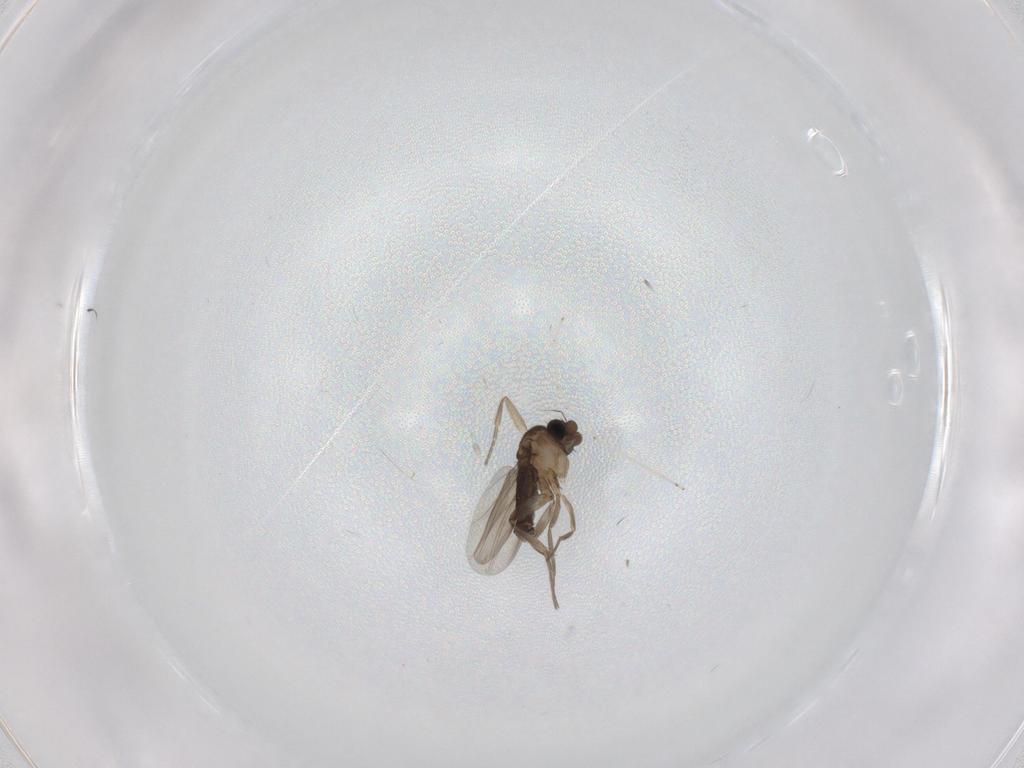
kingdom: Animalia
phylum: Arthropoda
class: Insecta
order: Diptera
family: Phoridae
